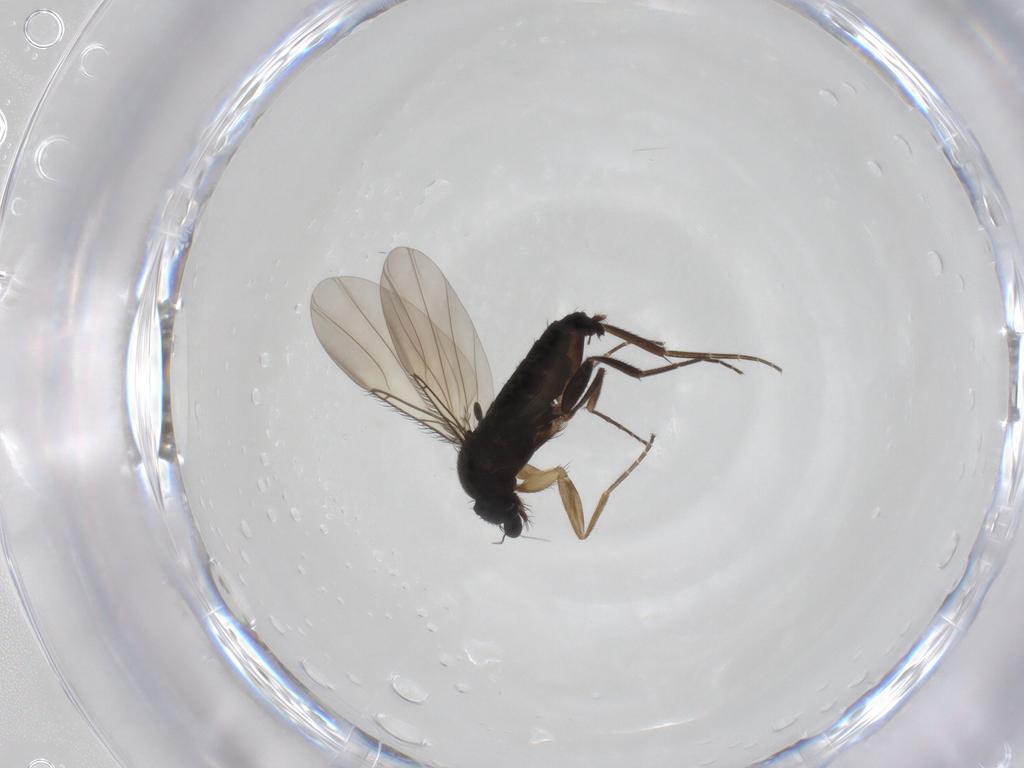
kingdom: Animalia
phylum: Arthropoda
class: Insecta
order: Diptera
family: Phoridae
